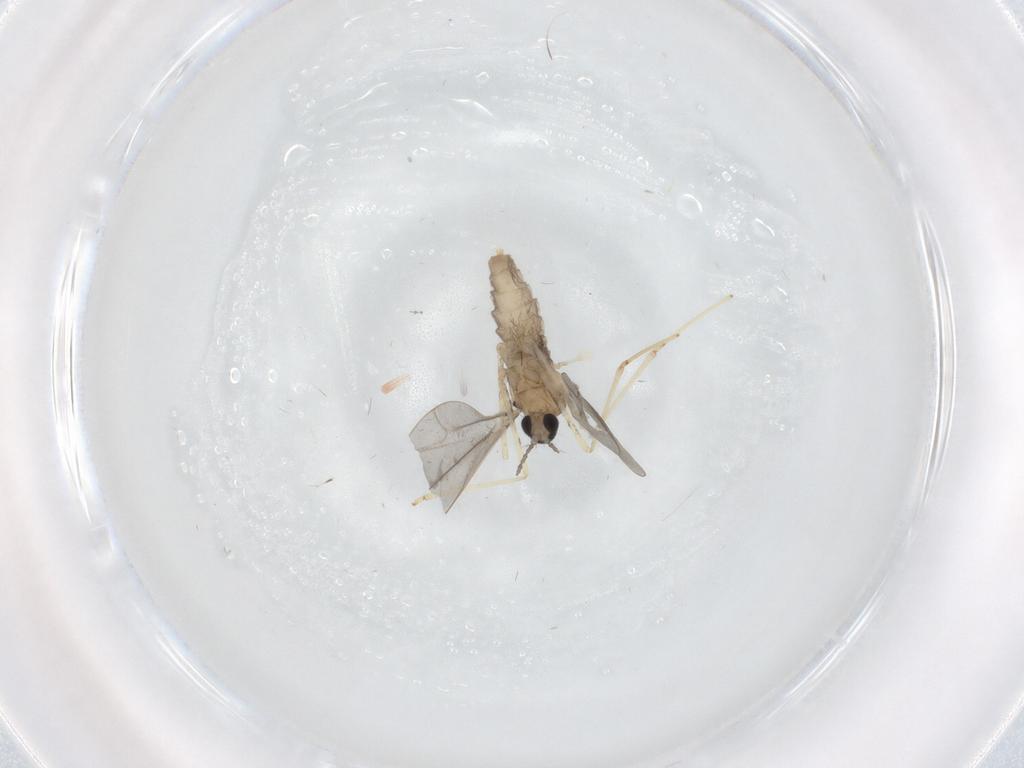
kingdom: Animalia
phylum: Arthropoda
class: Insecta
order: Diptera
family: Cecidomyiidae
